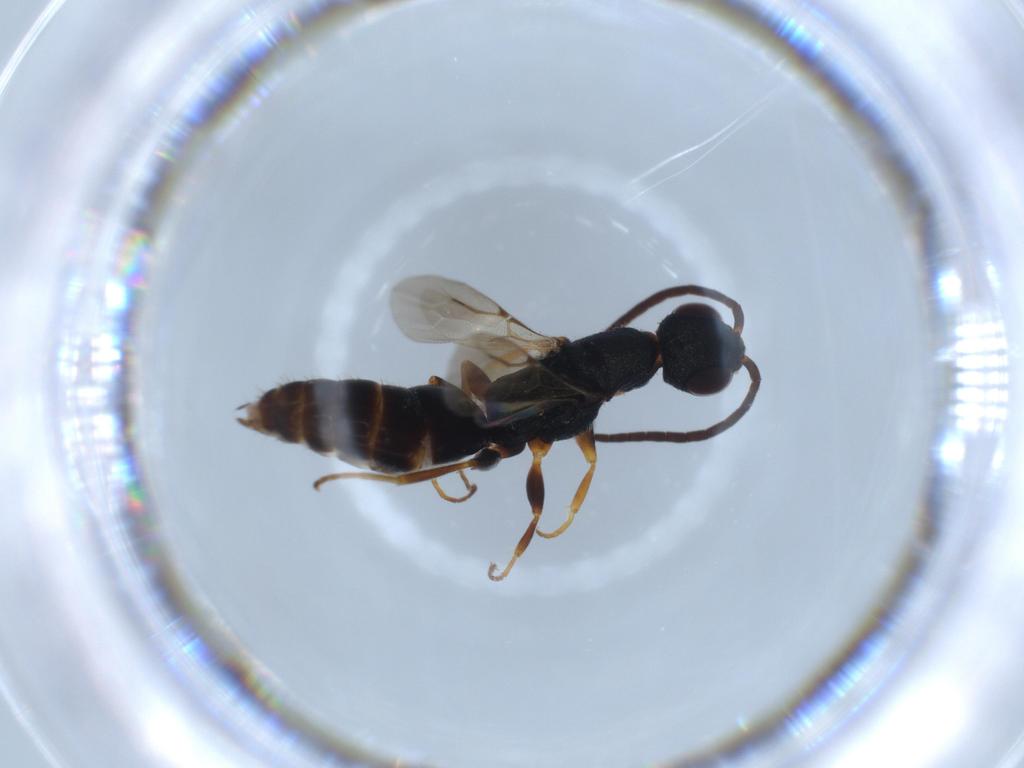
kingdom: Animalia
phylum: Arthropoda
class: Insecta
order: Hymenoptera
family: Bethylidae
